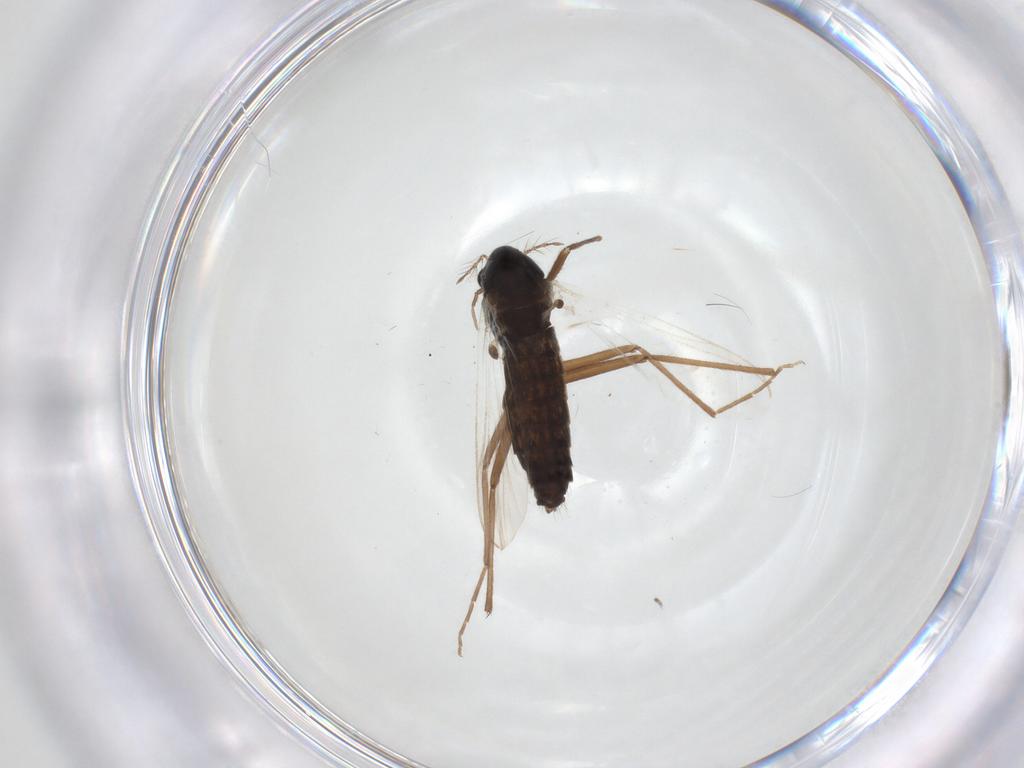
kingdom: Animalia
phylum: Arthropoda
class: Insecta
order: Diptera
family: Chironomidae
